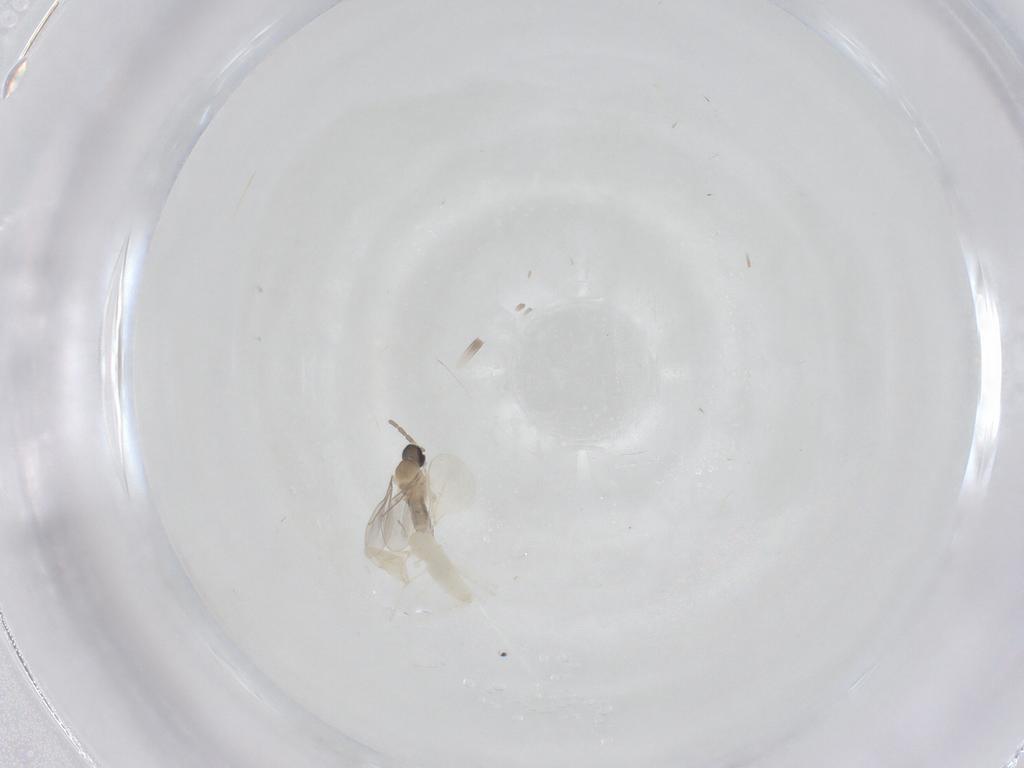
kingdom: Animalia
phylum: Arthropoda
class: Insecta
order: Diptera
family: Cecidomyiidae
